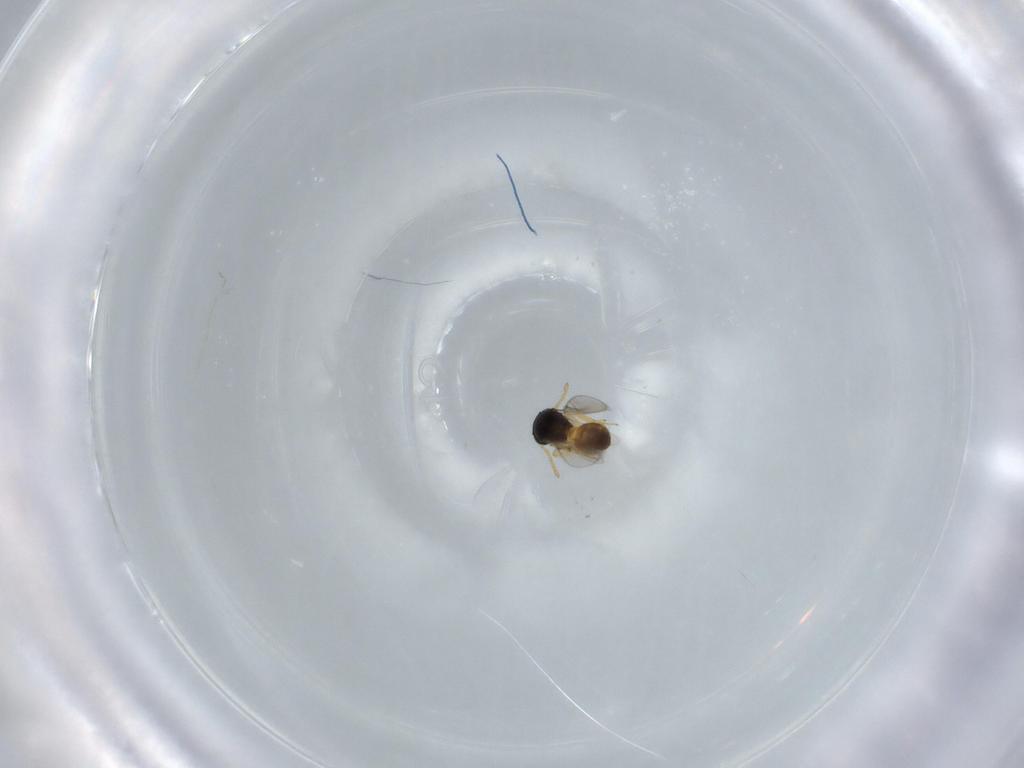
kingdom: Animalia
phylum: Arthropoda
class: Insecta
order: Hymenoptera
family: Scelionidae
